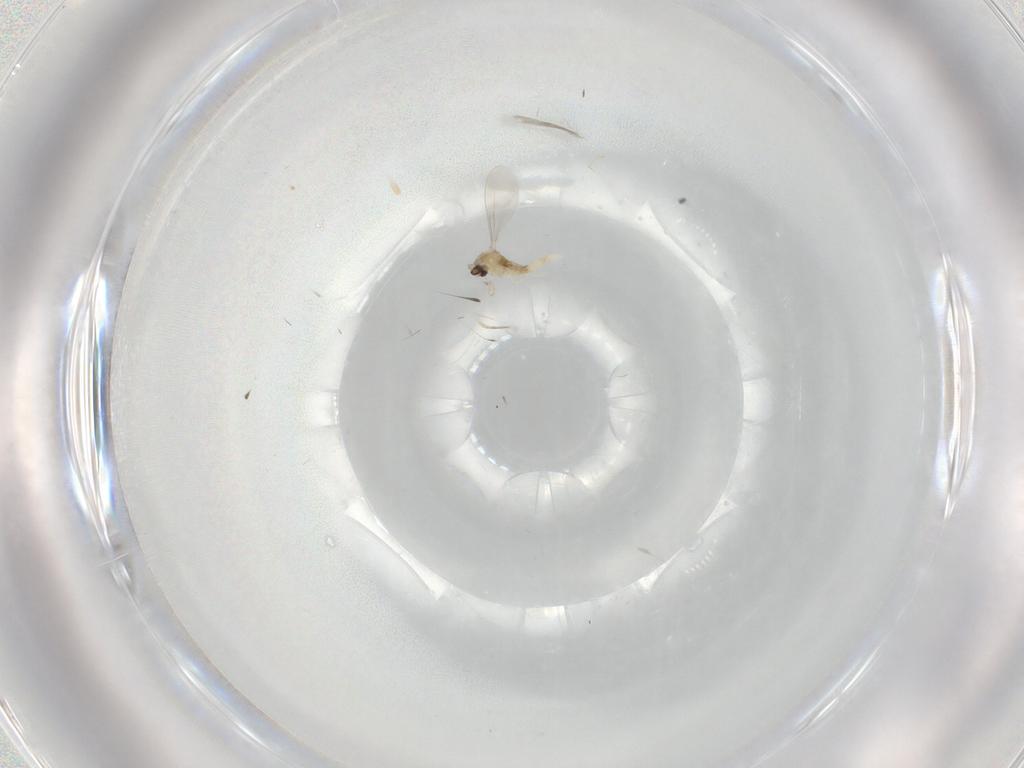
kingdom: Animalia
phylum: Arthropoda
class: Insecta
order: Diptera
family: Cecidomyiidae
